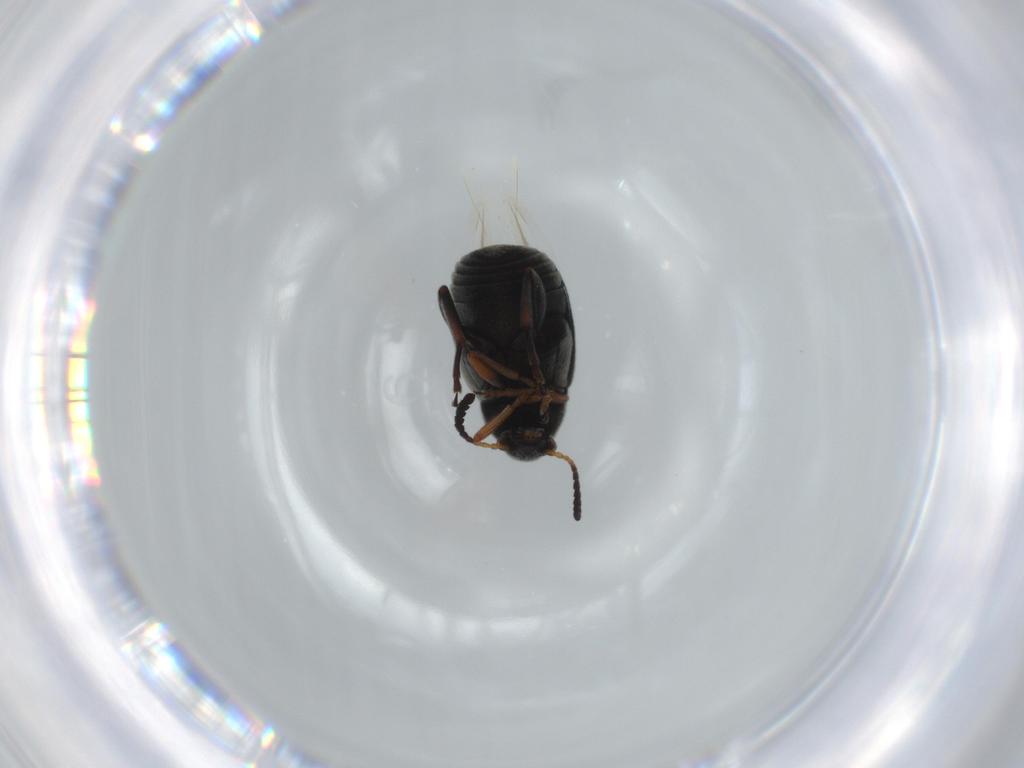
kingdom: Animalia
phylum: Arthropoda
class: Insecta
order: Coleoptera
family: Chrysomelidae
